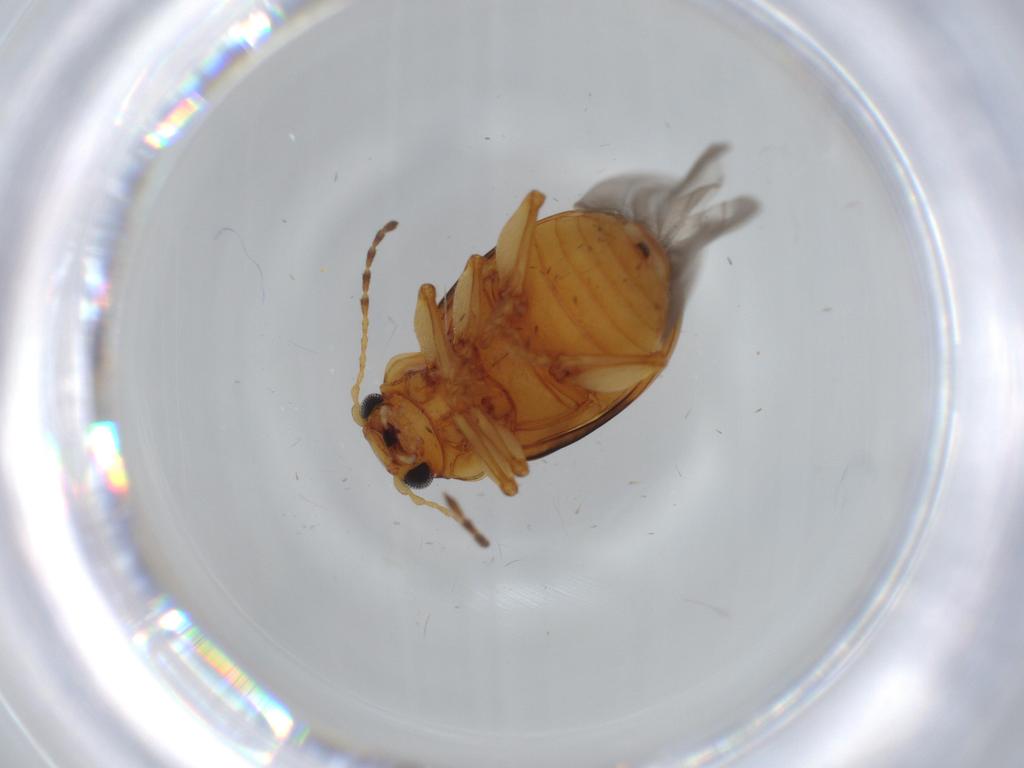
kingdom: Animalia
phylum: Arthropoda
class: Insecta
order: Coleoptera
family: Chrysomelidae
